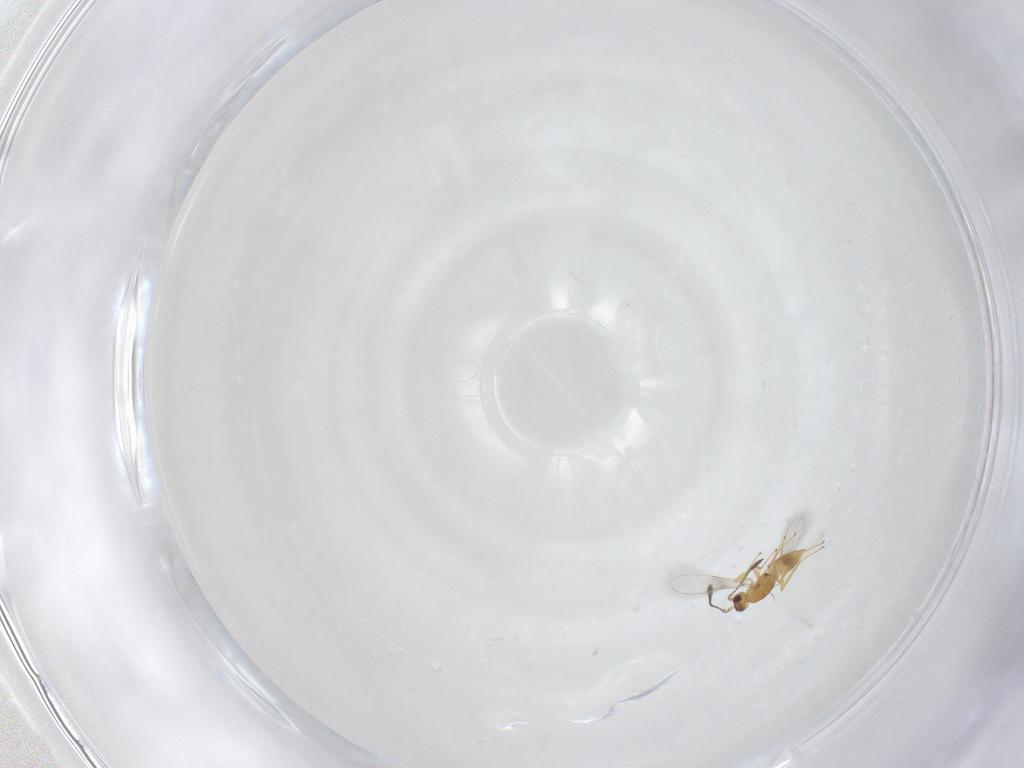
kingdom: Animalia
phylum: Arthropoda
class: Insecta
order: Hymenoptera
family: Mymaridae
